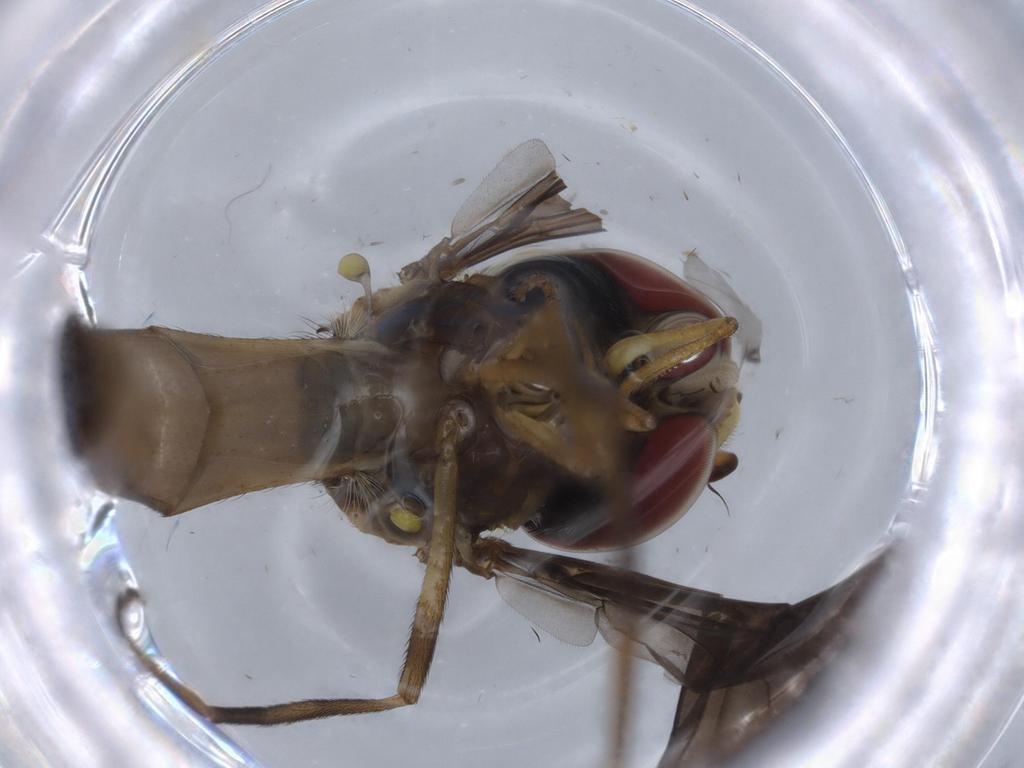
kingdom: Animalia
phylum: Arthropoda
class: Insecta
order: Diptera
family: Syrphidae
